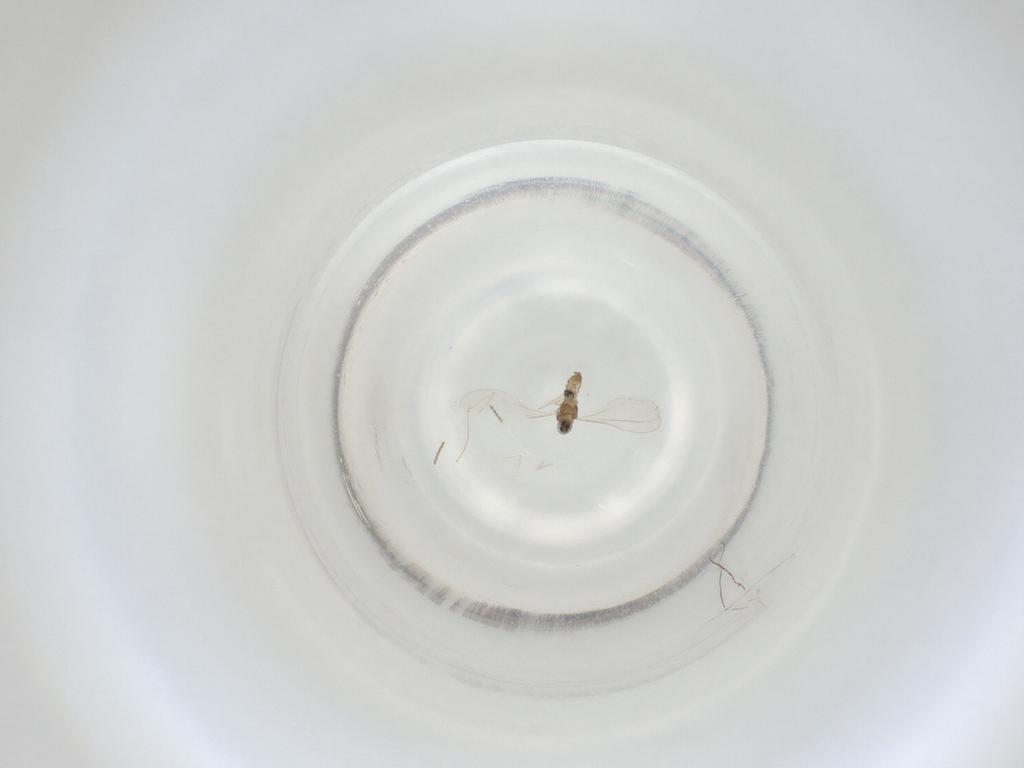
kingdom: Animalia
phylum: Arthropoda
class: Insecta
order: Diptera
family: Cecidomyiidae
